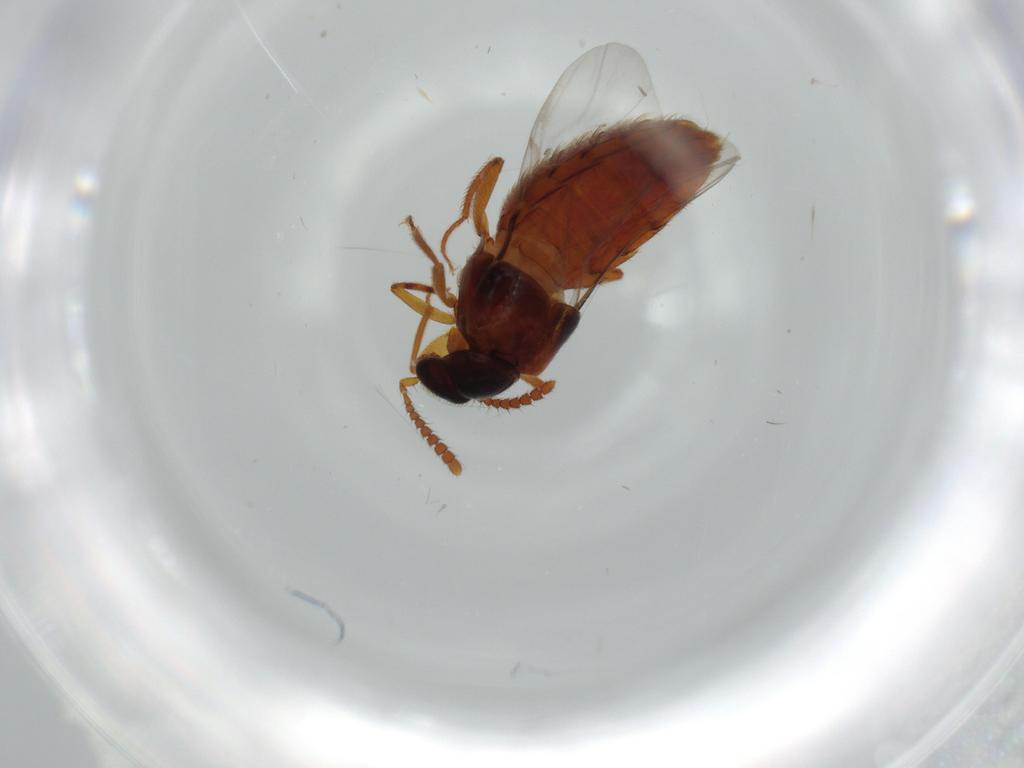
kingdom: Animalia
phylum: Arthropoda
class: Insecta
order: Coleoptera
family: Staphylinidae
